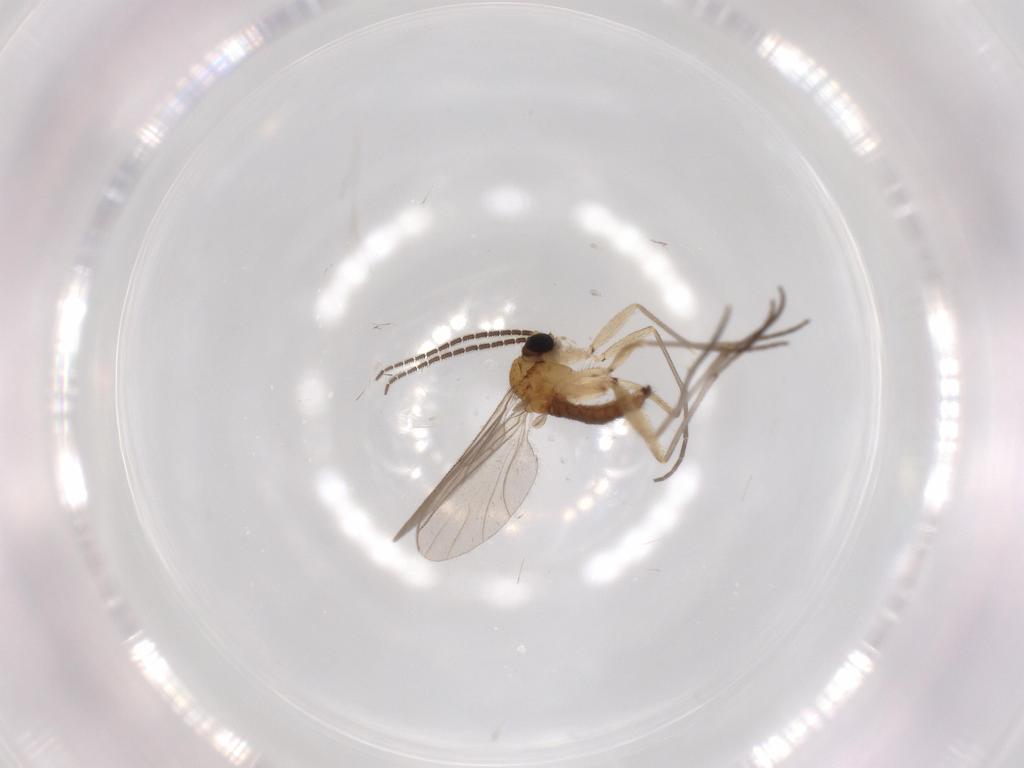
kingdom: Animalia
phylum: Arthropoda
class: Insecta
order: Diptera
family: Sciaridae
